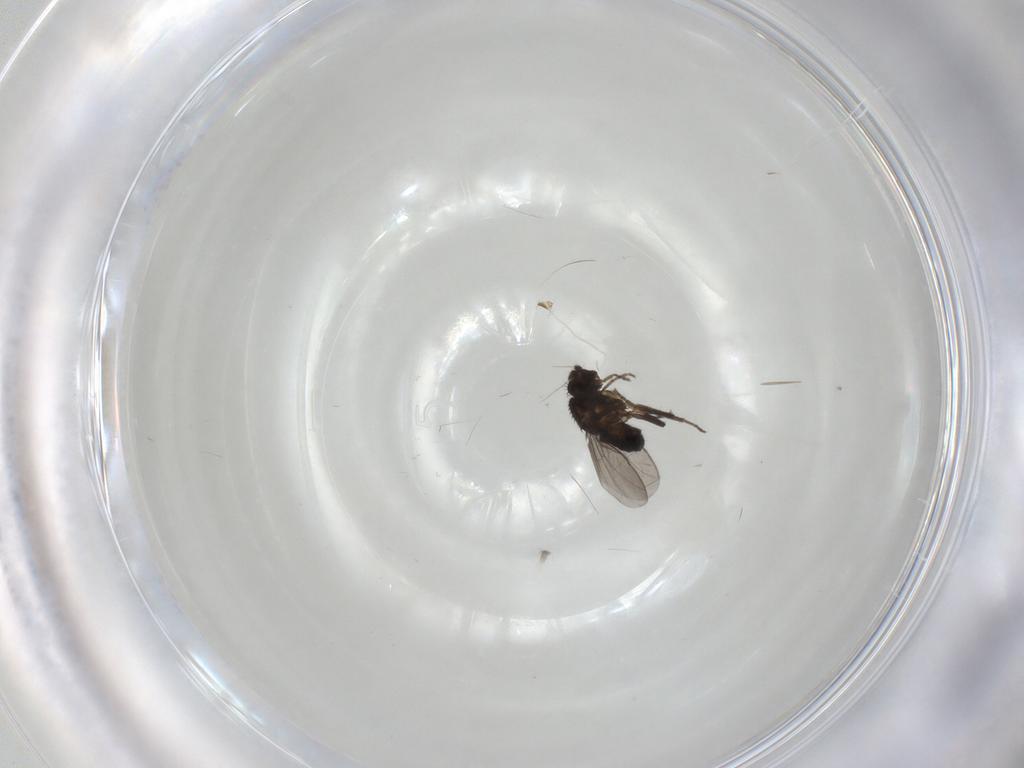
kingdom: Animalia
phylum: Arthropoda
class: Insecta
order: Diptera
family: Sphaeroceridae
